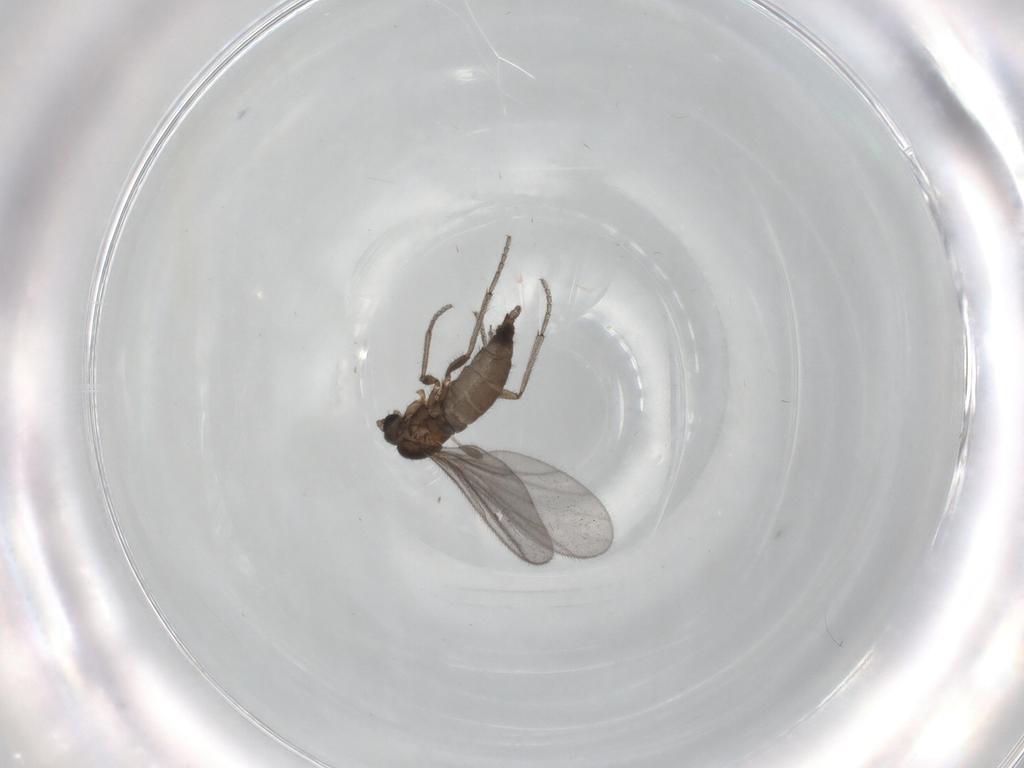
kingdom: Animalia
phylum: Arthropoda
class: Insecta
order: Diptera
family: Sciaridae
